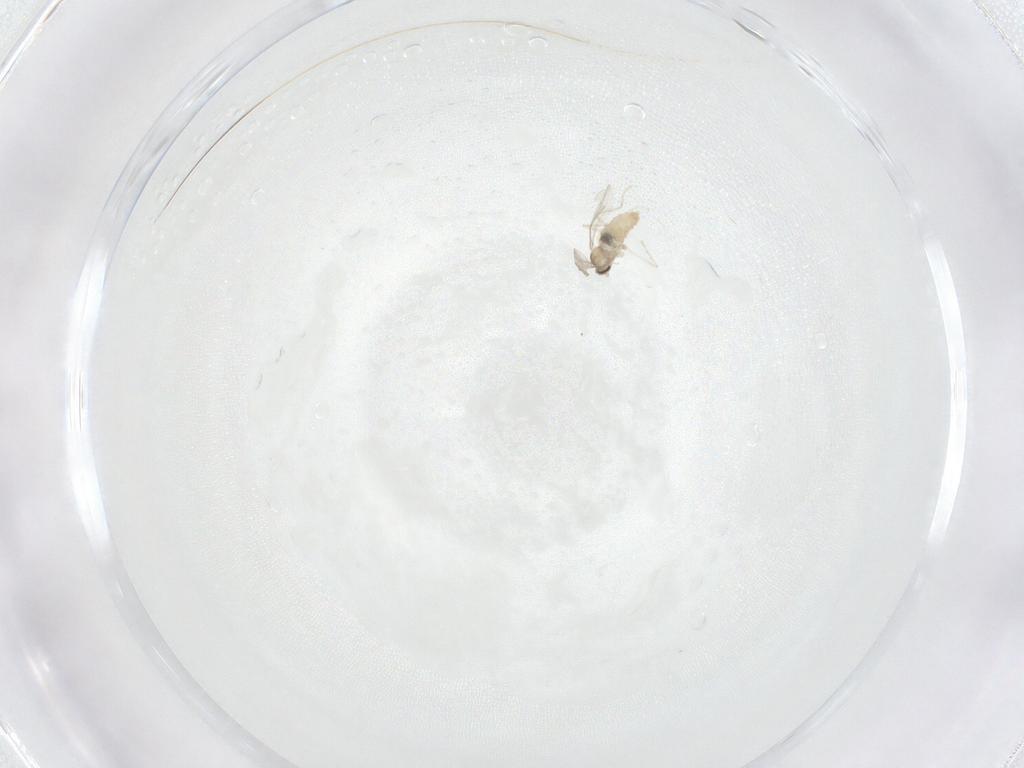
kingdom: Animalia
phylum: Arthropoda
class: Insecta
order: Diptera
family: Cecidomyiidae
